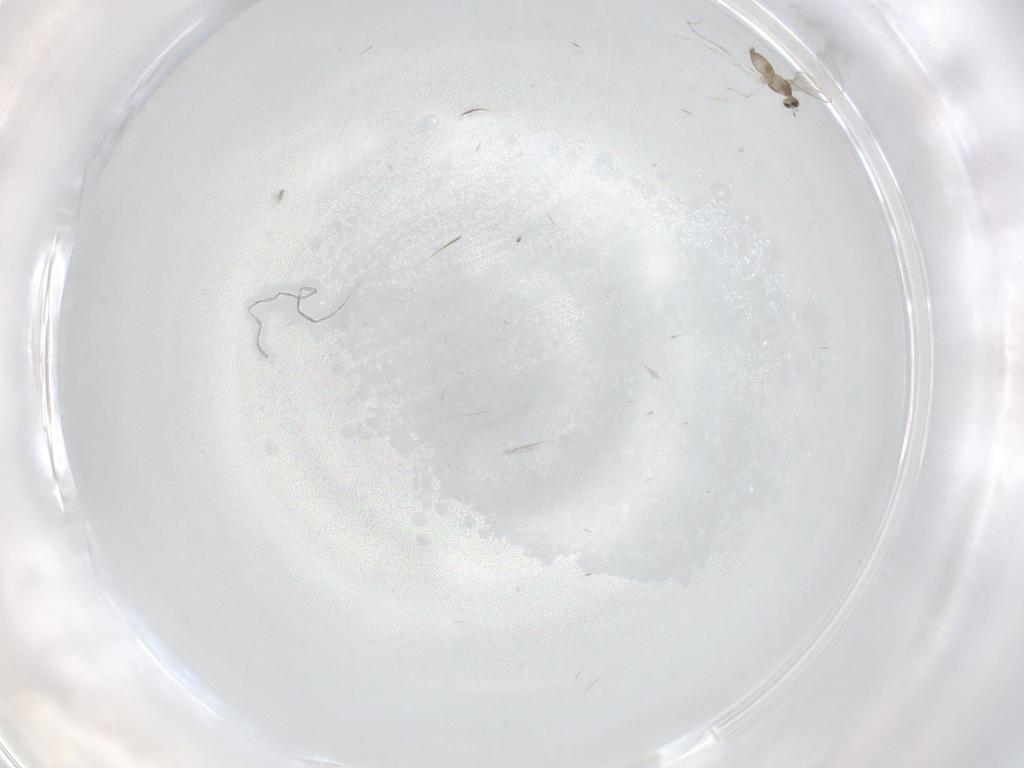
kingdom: Animalia
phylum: Arthropoda
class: Insecta
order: Diptera
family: Cecidomyiidae
